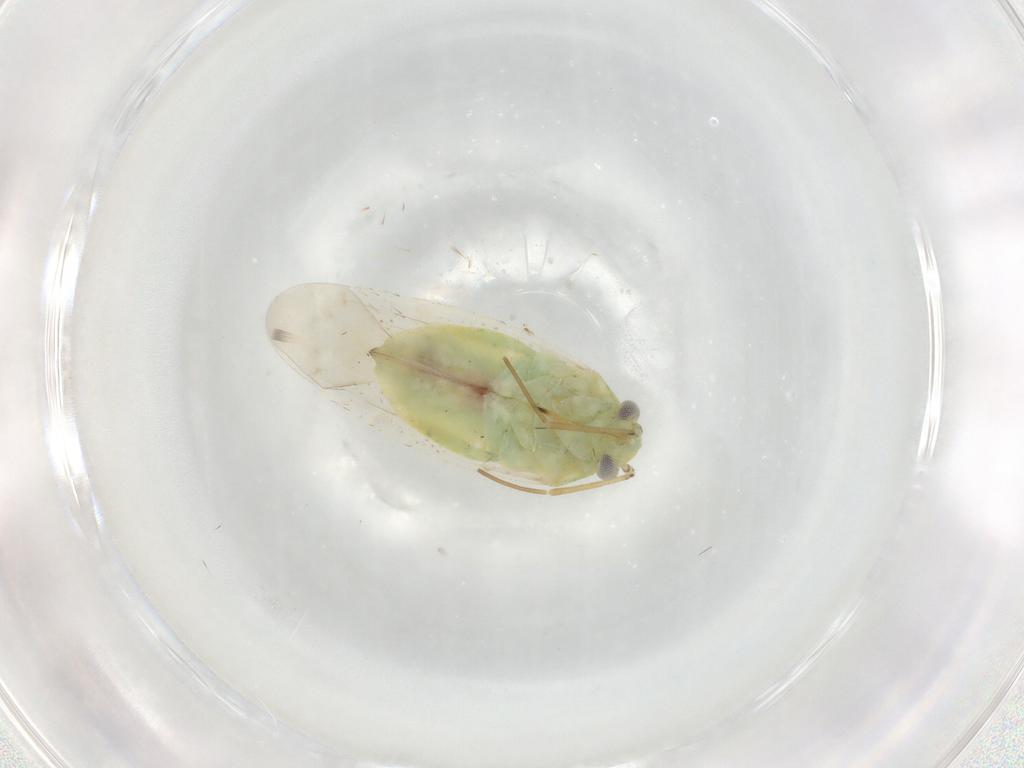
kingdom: Animalia
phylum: Arthropoda
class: Insecta
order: Hemiptera
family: Miridae
